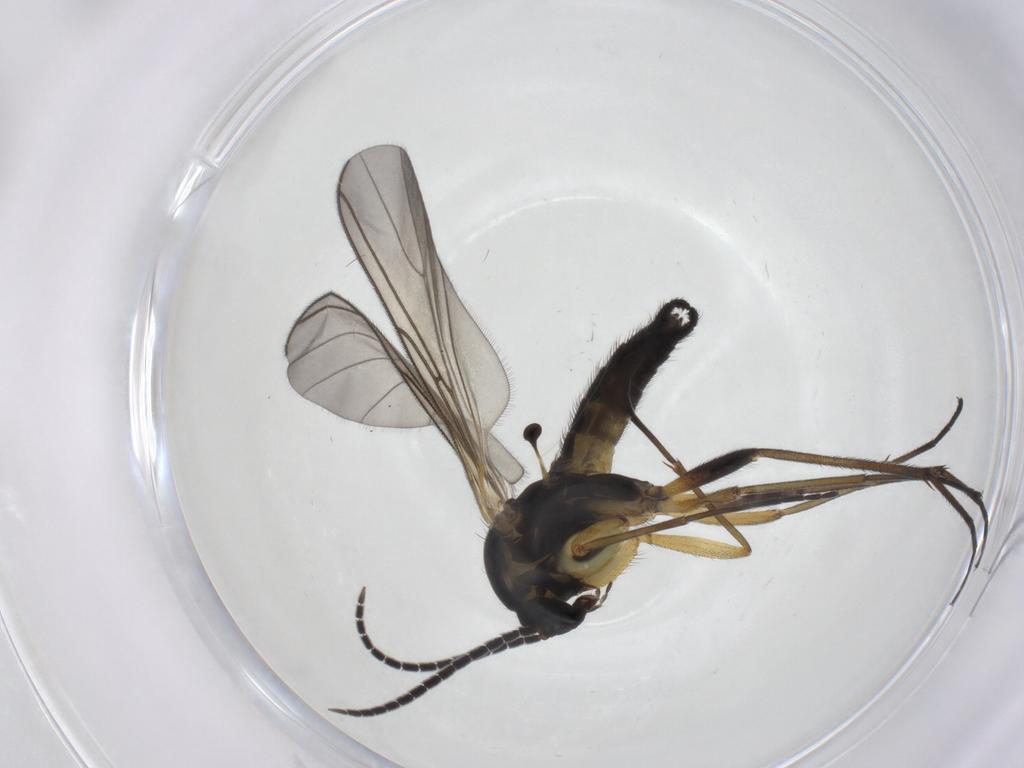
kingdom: Animalia
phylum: Arthropoda
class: Insecta
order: Diptera
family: Sciaridae
